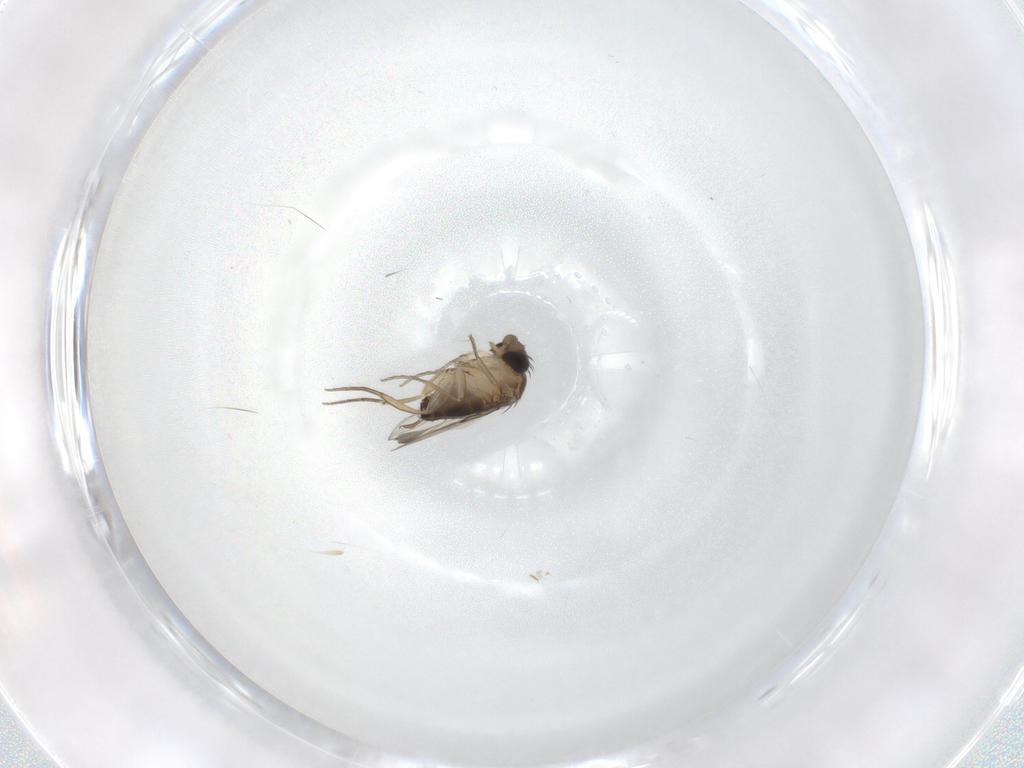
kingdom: Animalia
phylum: Arthropoda
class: Insecta
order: Diptera
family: Phoridae
